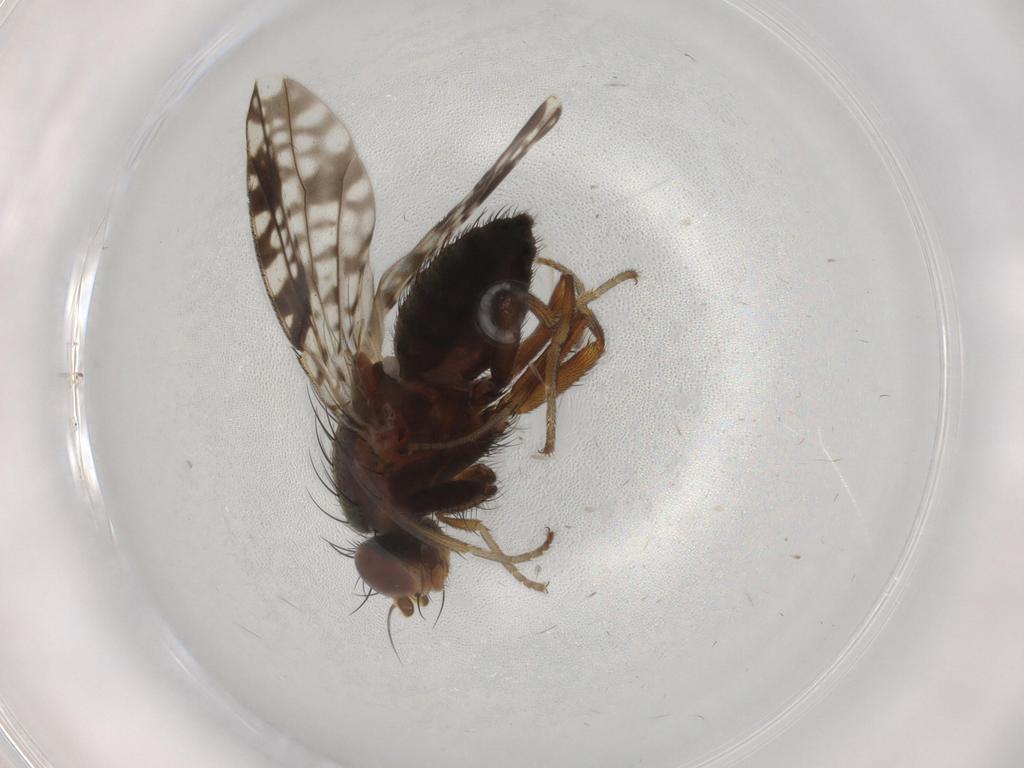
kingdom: Animalia
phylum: Arthropoda
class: Insecta
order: Diptera
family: Tephritidae
